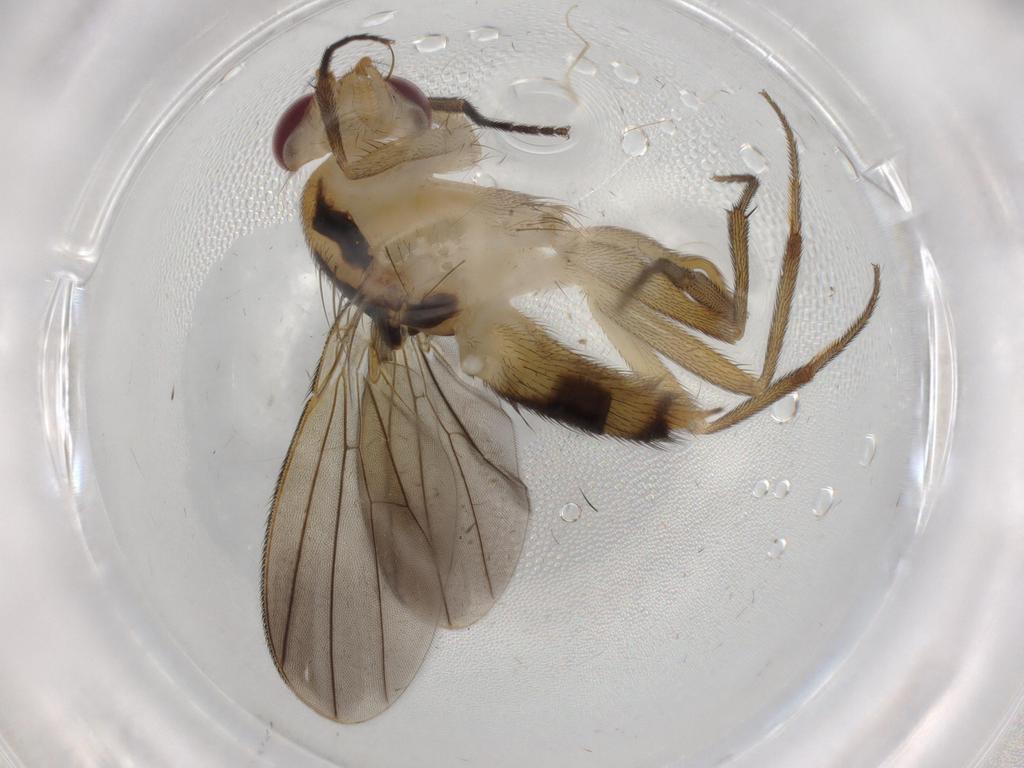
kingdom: Animalia
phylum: Arthropoda
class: Insecta
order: Diptera
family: Clusiidae
